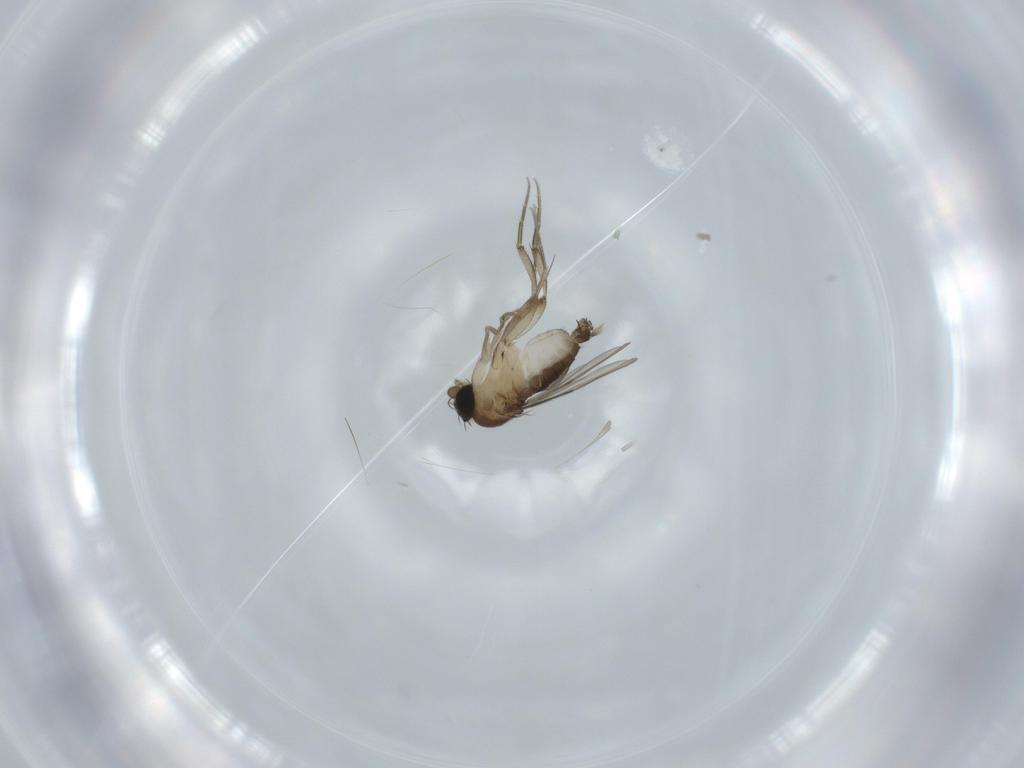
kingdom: Animalia
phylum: Arthropoda
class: Insecta
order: Diptera
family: Phoridae
